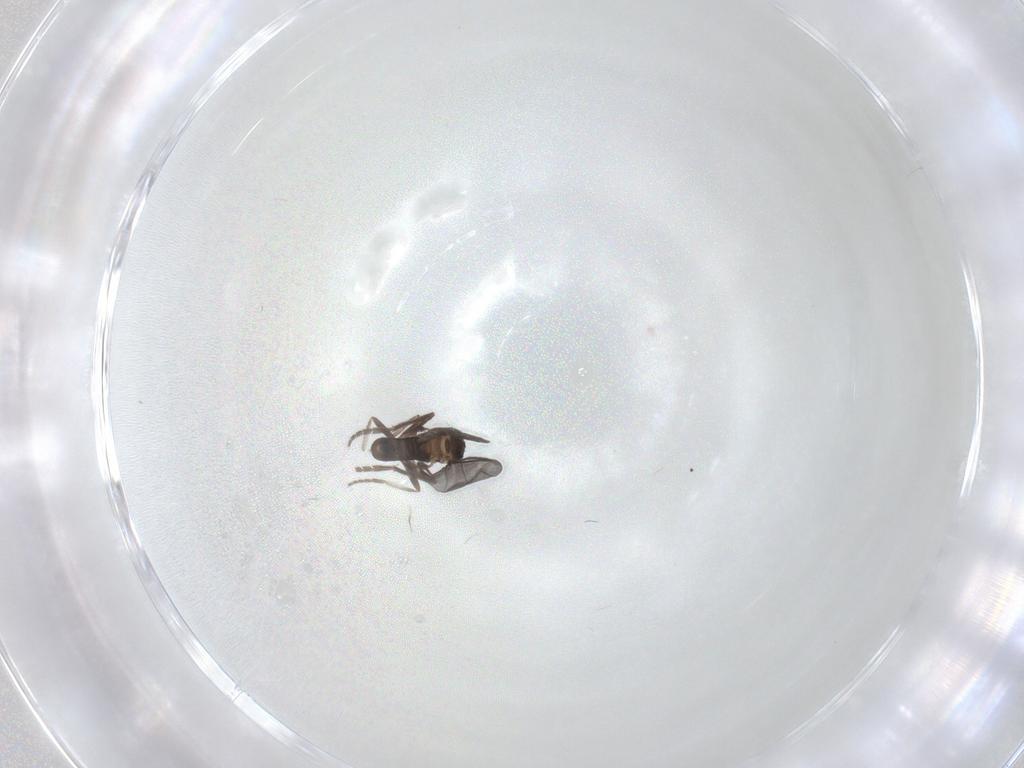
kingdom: Animalia
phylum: Arthropoda
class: Insecta
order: Diptera
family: Phoridae
